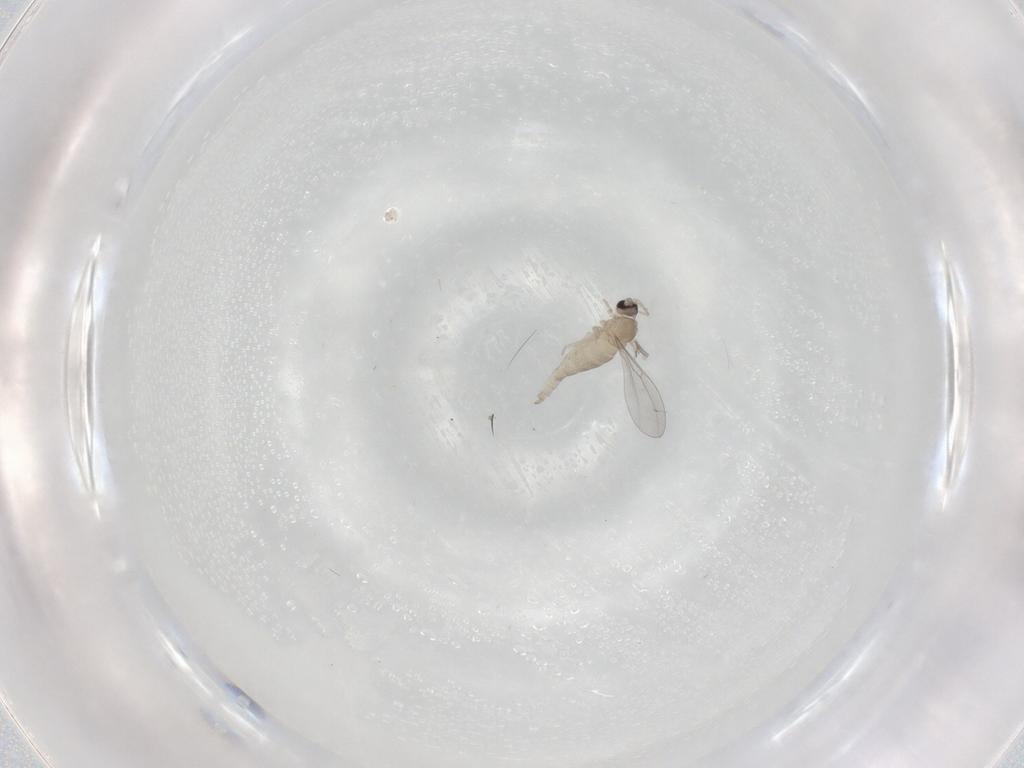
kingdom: Animalia
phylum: Arthropoda
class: Insecta
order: Diptera
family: Cecidomyiidae
